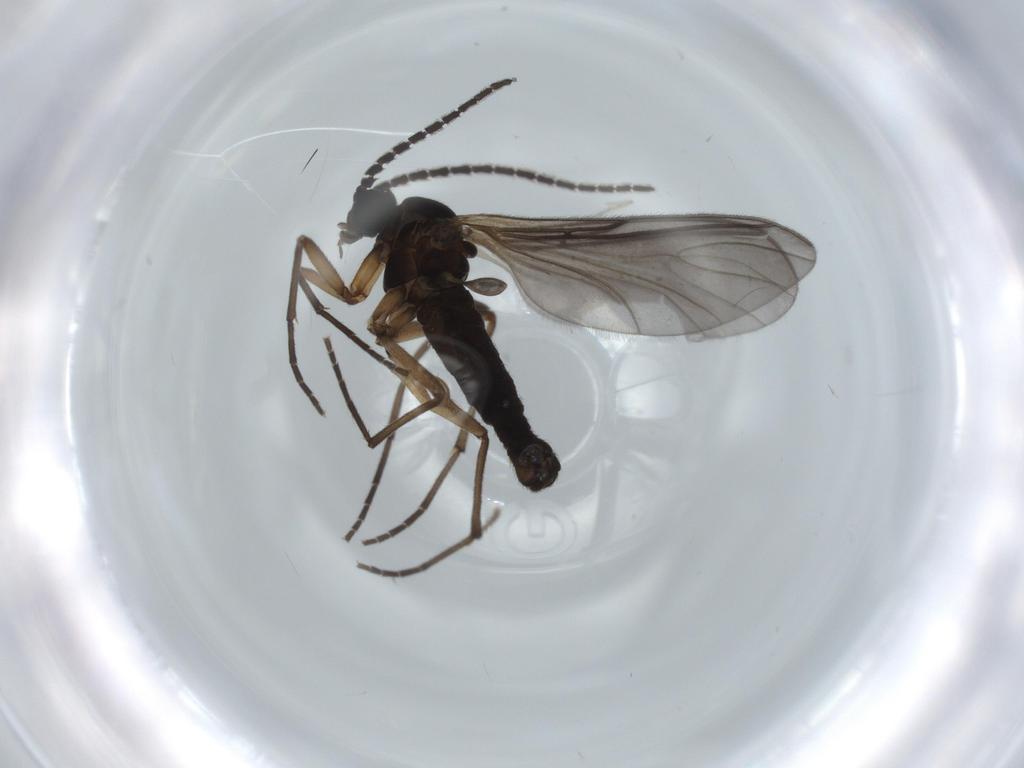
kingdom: Animalia
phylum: Arthropoda
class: Insecta
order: Diptera
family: Sciaridae
